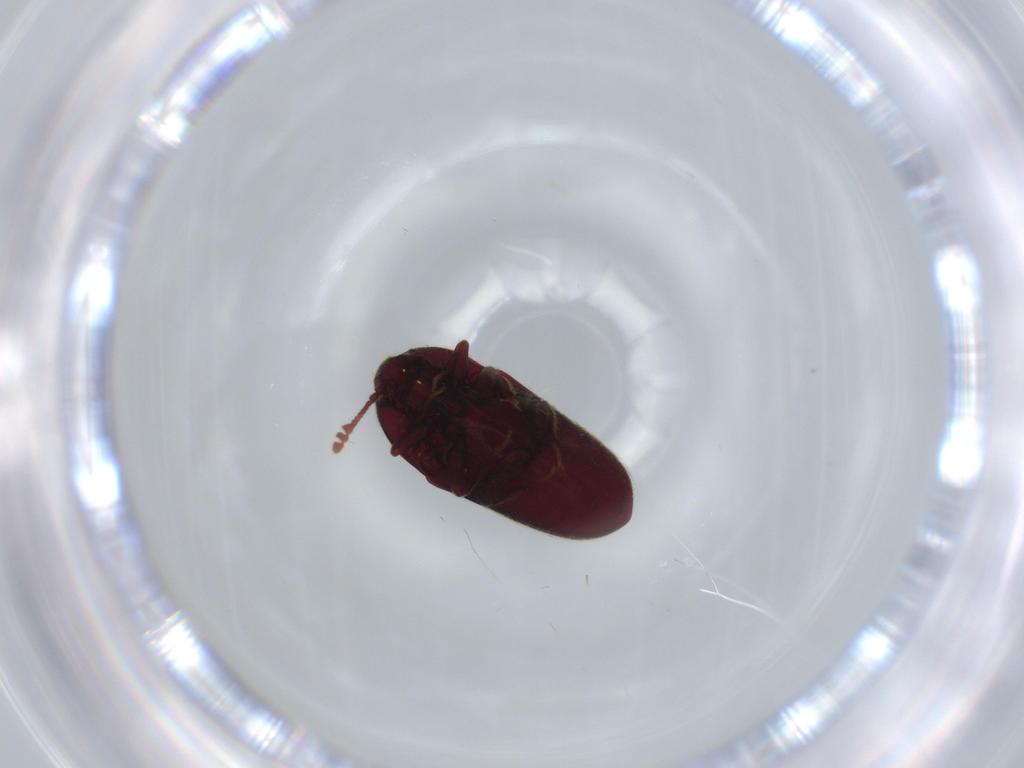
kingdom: Animalia
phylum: Arthropoda
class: Insecta
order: Coleoptera
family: Throscidae
